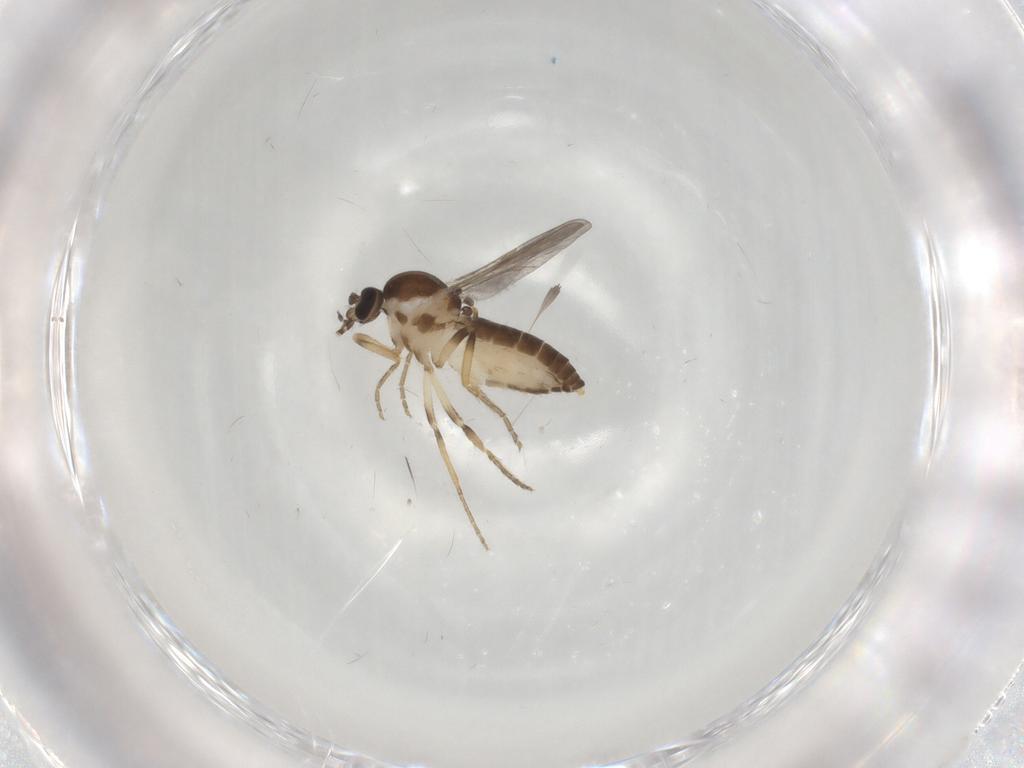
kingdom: Animalia
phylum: Arthropoda
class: Insecta
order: Diptera
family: Ceratopogonidae
